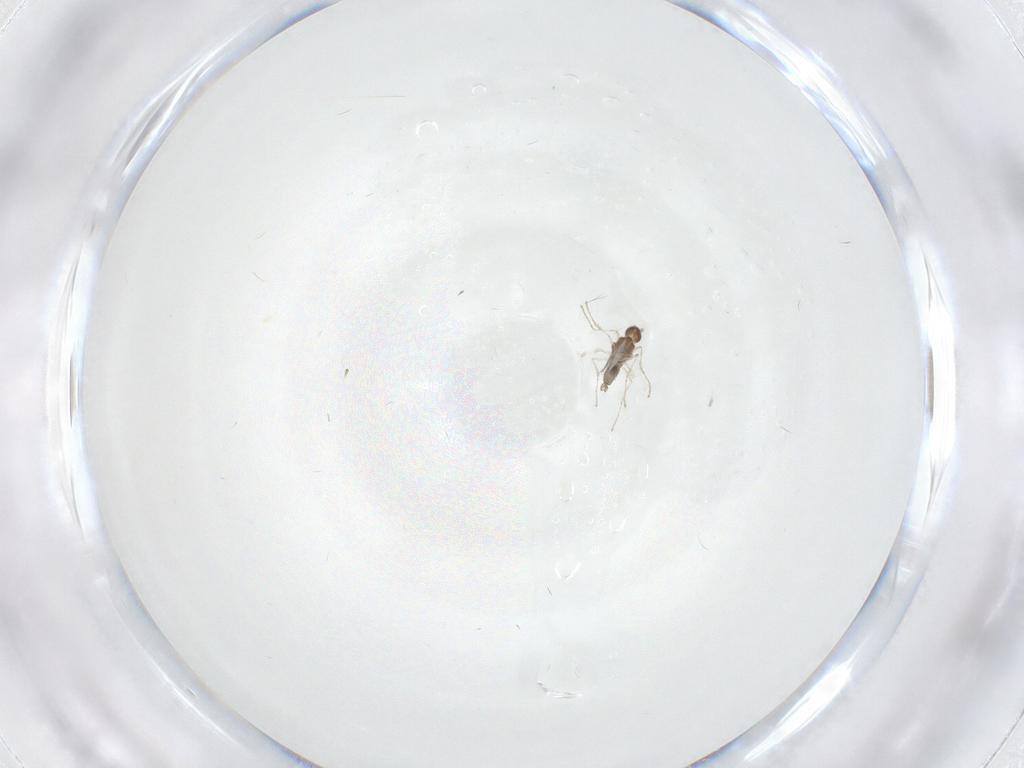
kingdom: Animalia
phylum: Arthropoda
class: Insecta
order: Diptera
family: Cecidomyiidae
